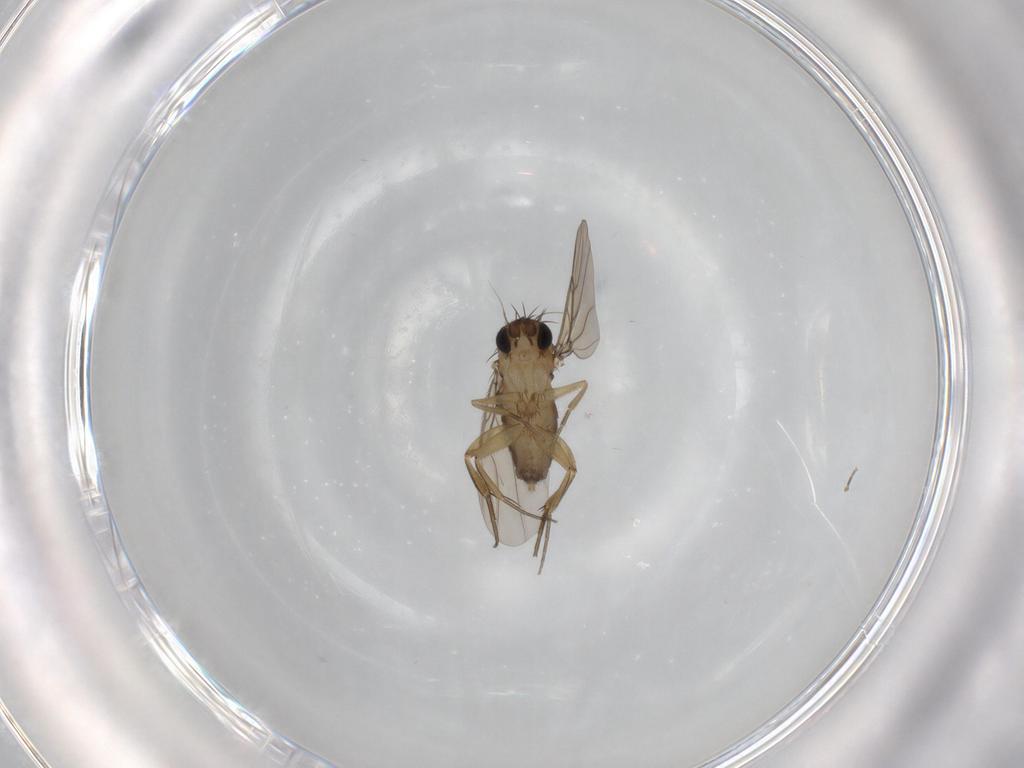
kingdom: Animalia
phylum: Arthropoda
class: Insecta
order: Diptera
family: Phoridae
